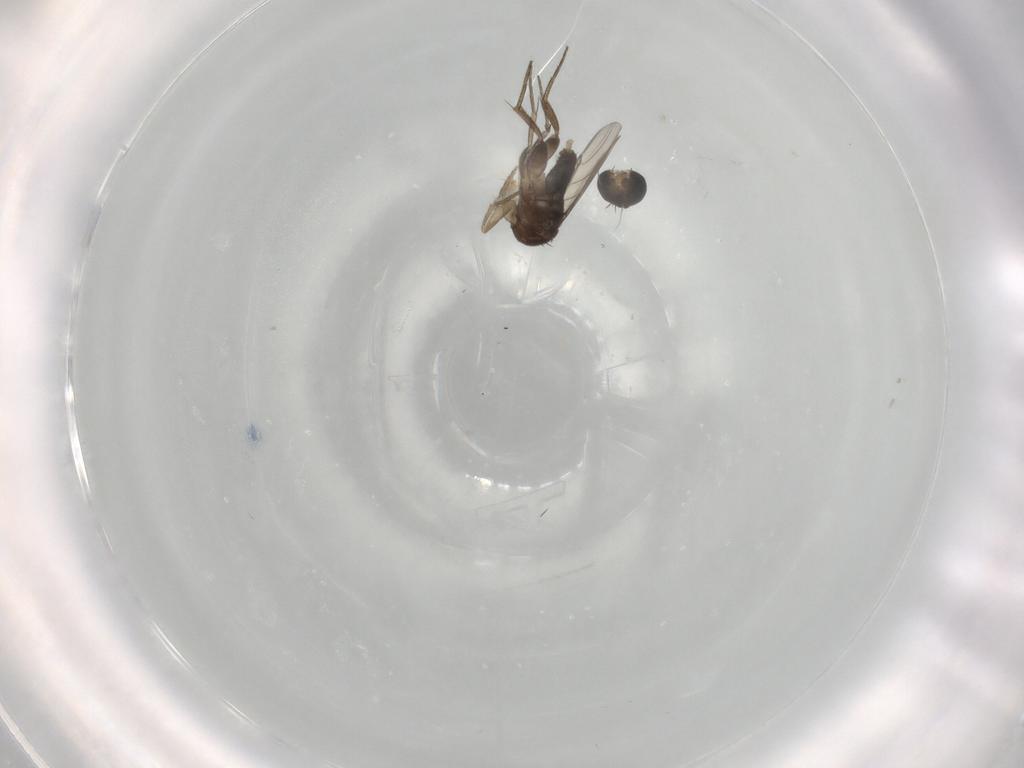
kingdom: Animalia
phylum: Arthropoda
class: Insecta
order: Diptera
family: Phoridae
